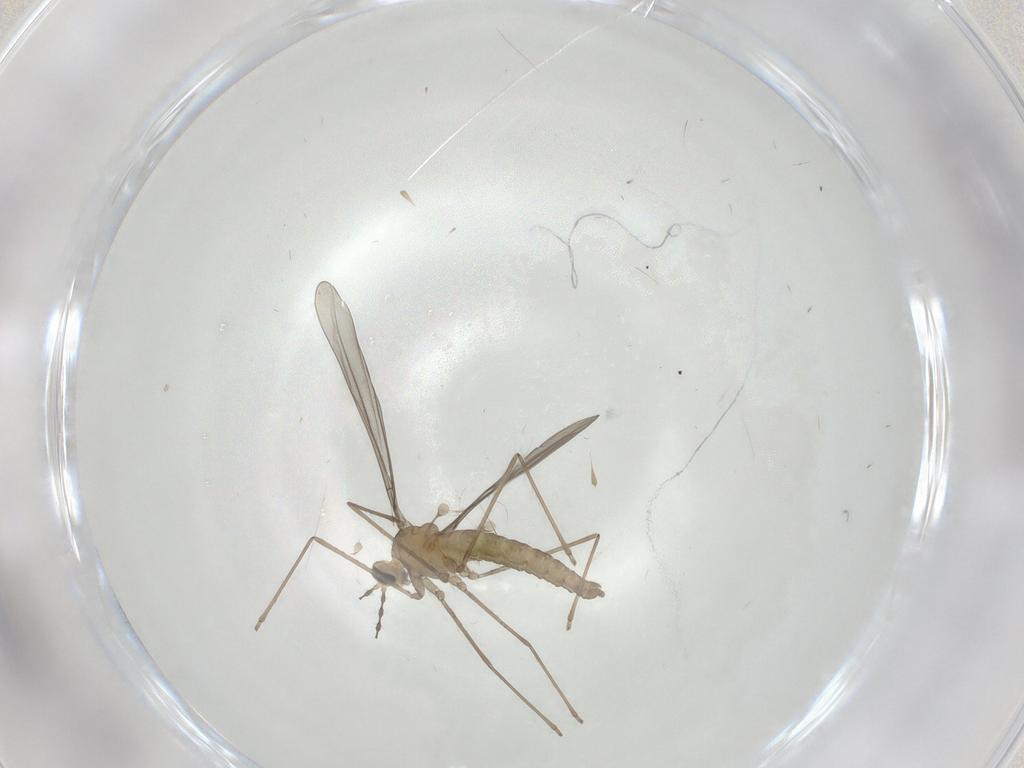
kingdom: Animalia
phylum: Arthropoda
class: Insecta
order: Diptera
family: Cecidomyiidae
